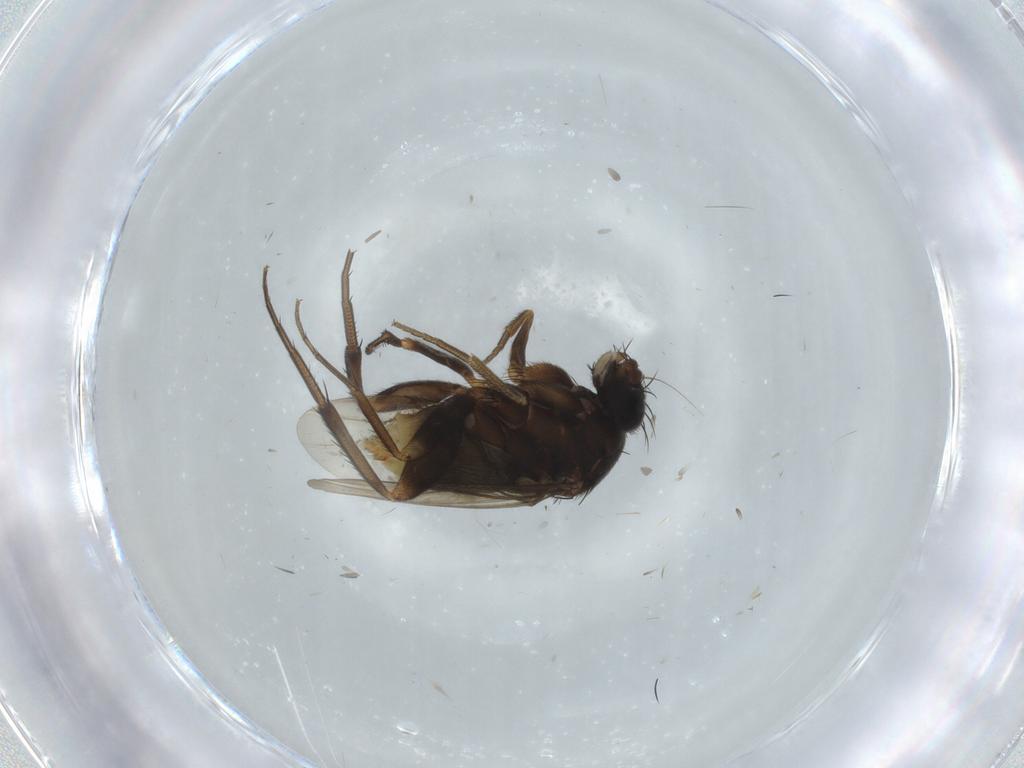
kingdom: Animalia
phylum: Arthropoda
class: Insecta
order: Diptera
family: Phoridae
